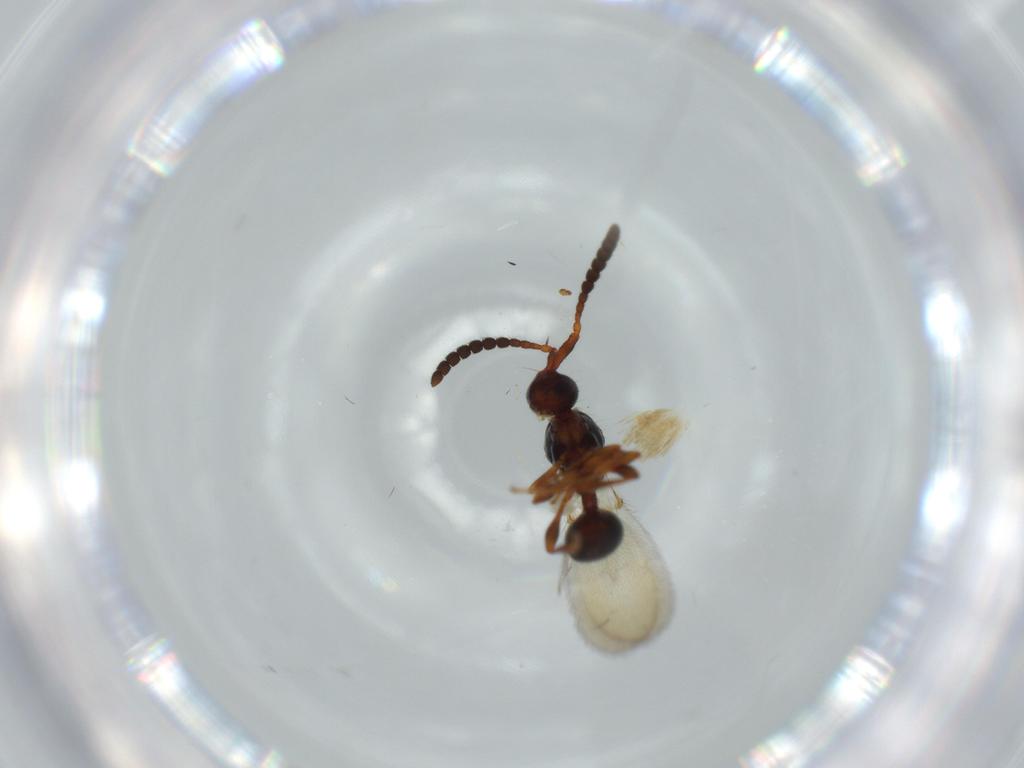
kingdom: Animalia
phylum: Arthropoda
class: Insecta
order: Hymenoptera
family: Diapriidae
